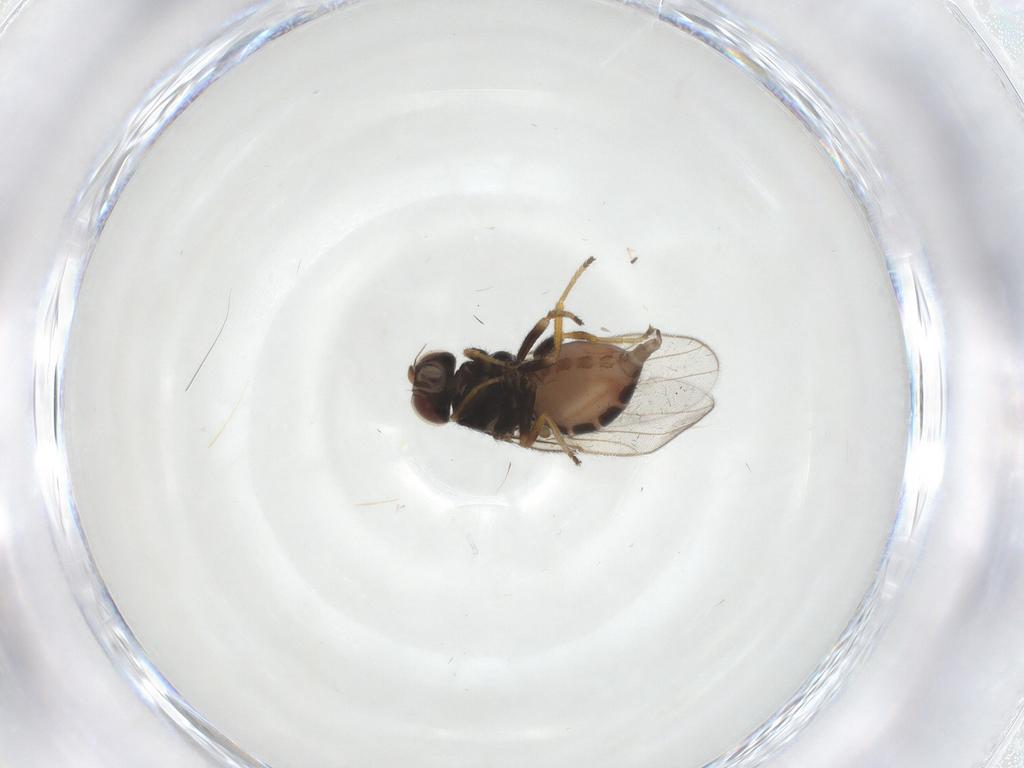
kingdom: Animalia
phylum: Arthropoda
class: Insecta
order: Diptera
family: Chloropidae
